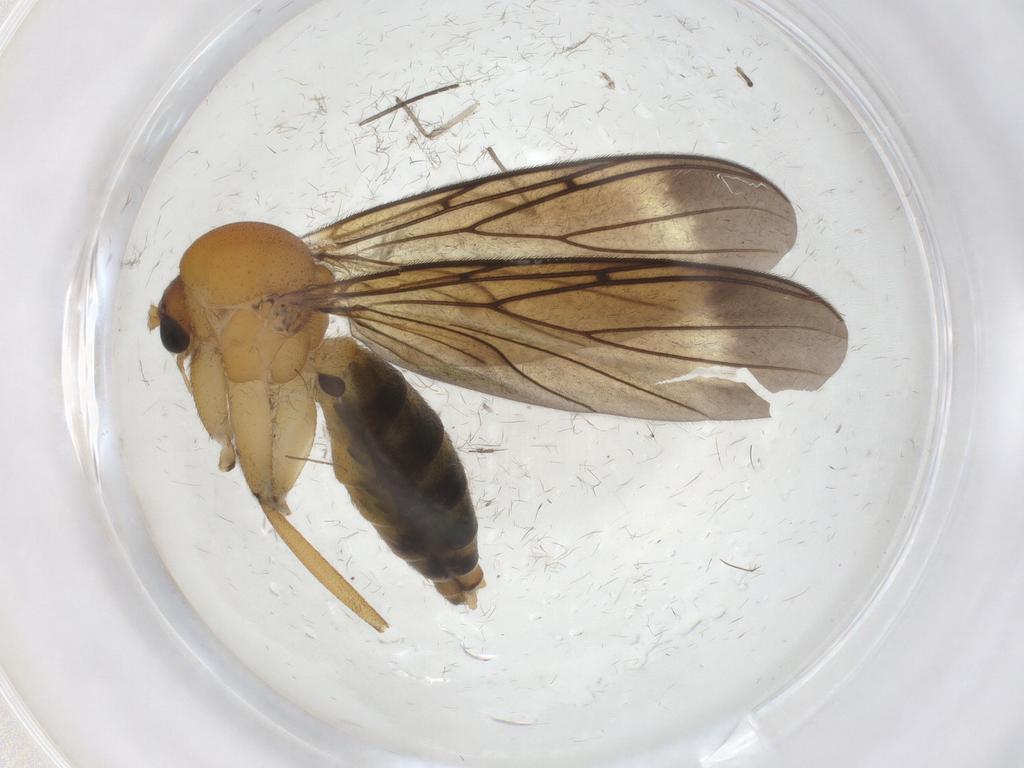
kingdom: Animalia
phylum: Arthropoda
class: Insecta
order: Diptera
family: Mycetophilidae
